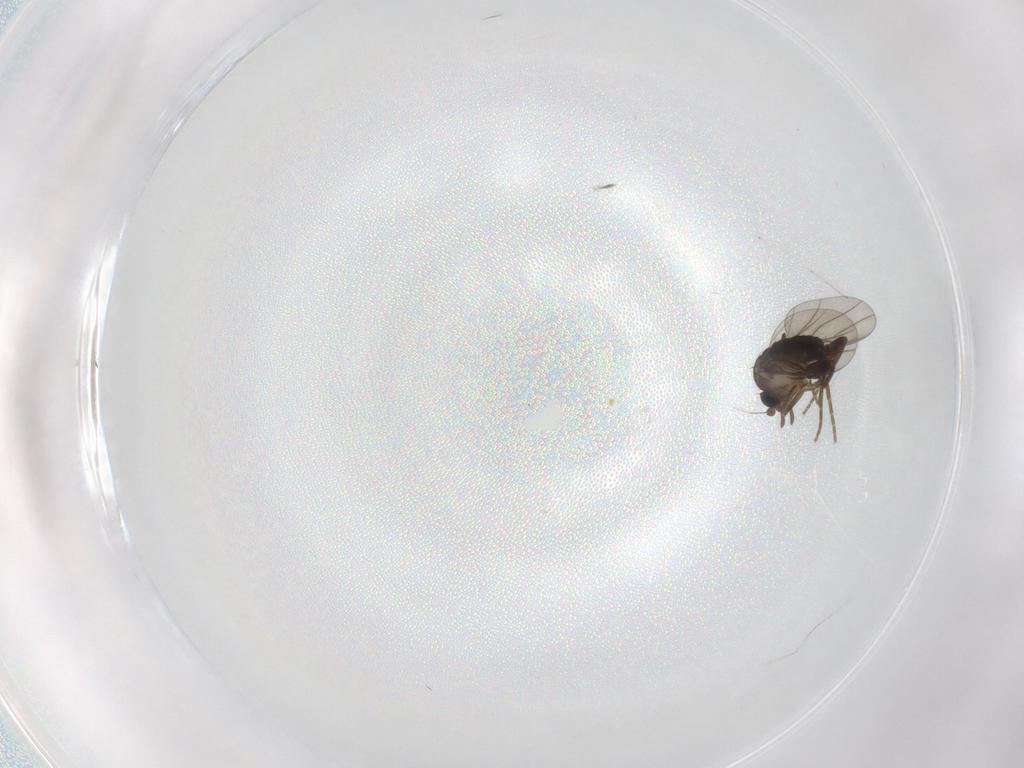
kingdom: Animalia
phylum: Arthropoda
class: Insecta
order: Diptera
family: Cecidomyiidae
